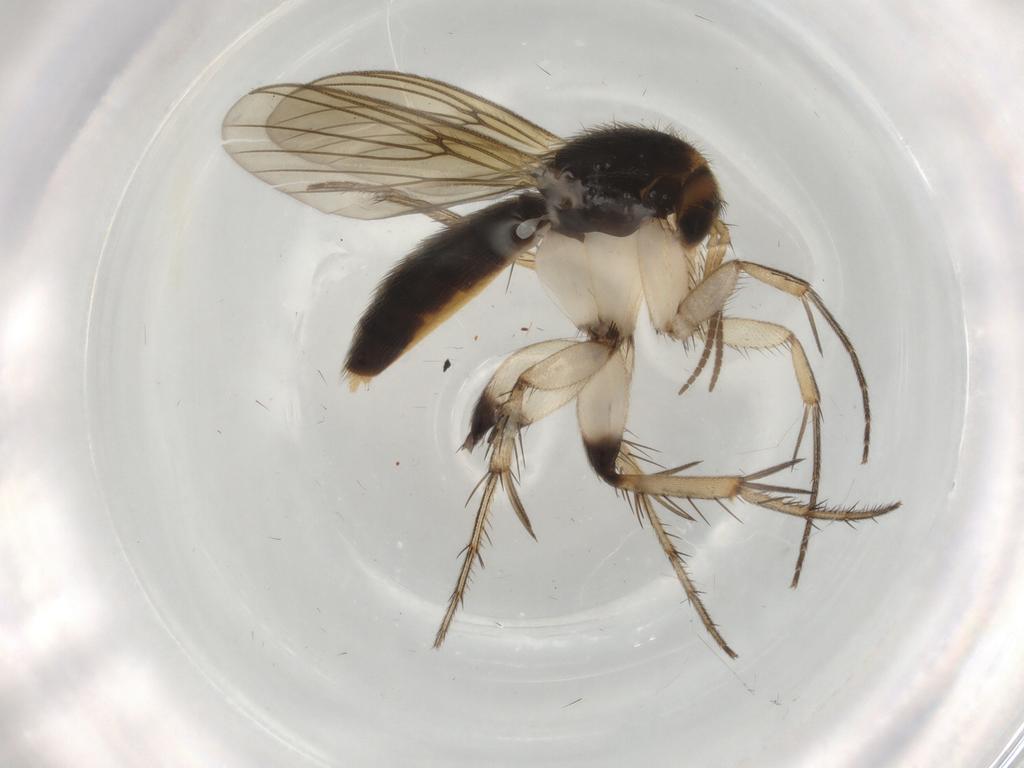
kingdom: Animalia
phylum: Arthropoda
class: Insecta
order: Diptera
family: Mycetophilidae
